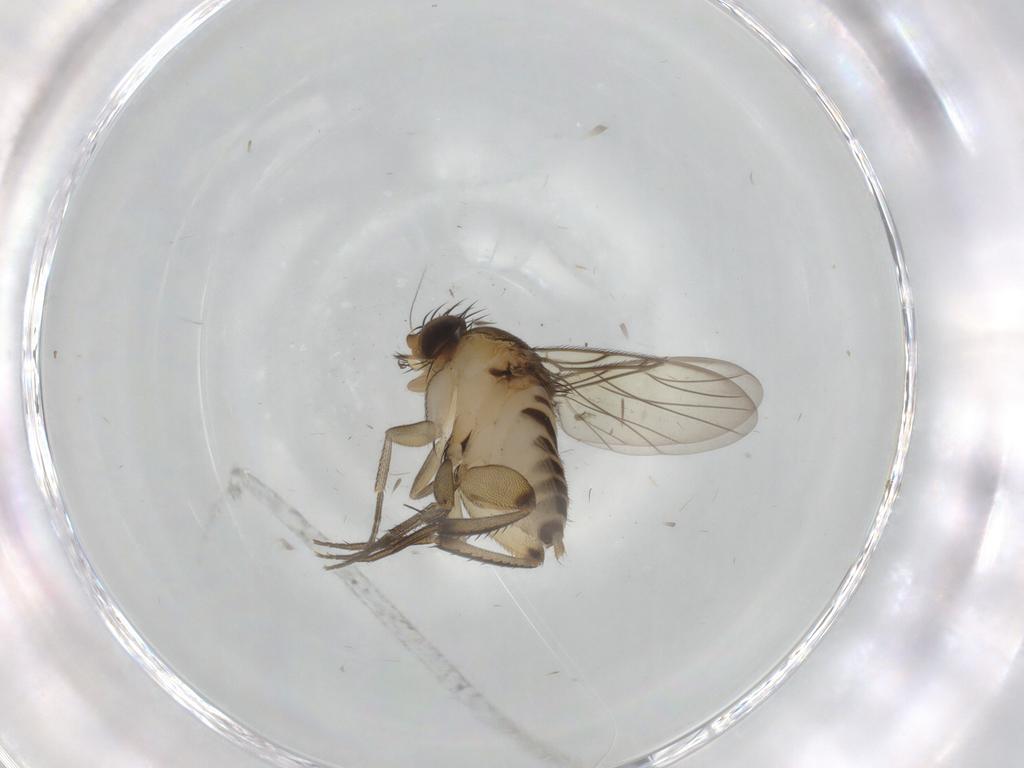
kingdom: Animalia
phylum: Arthropoda
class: Insecta
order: Diptera
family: Phoridae
